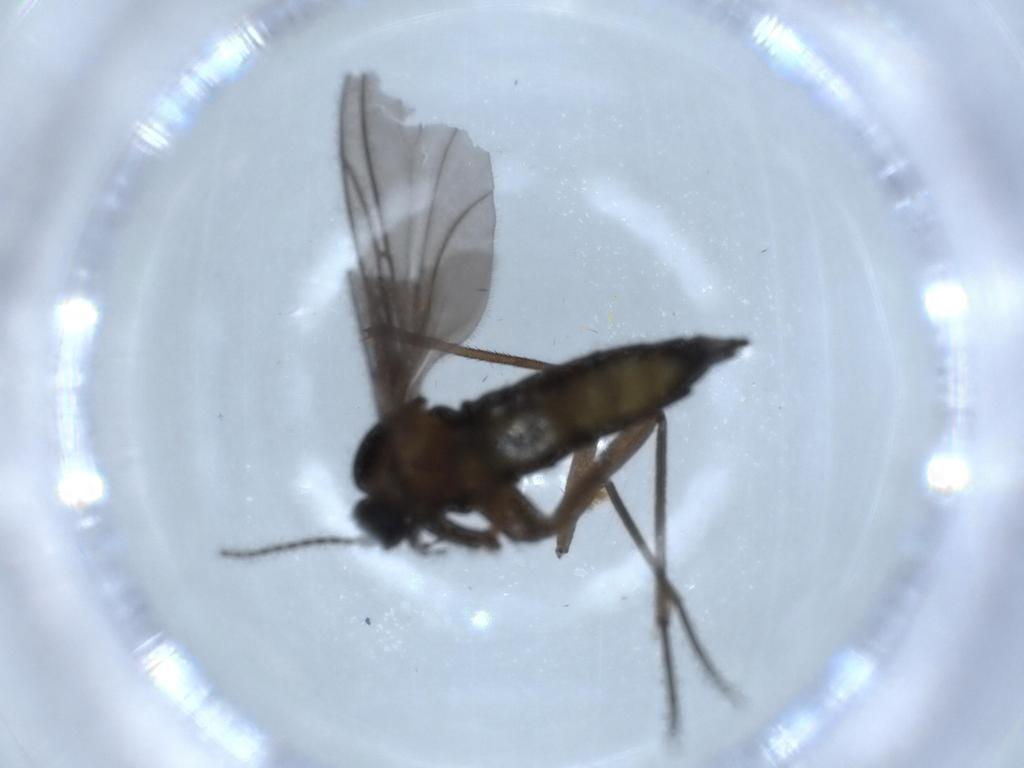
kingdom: Animalia
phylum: Arthropoda
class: Insecta
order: Diptera
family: Sciaridae
